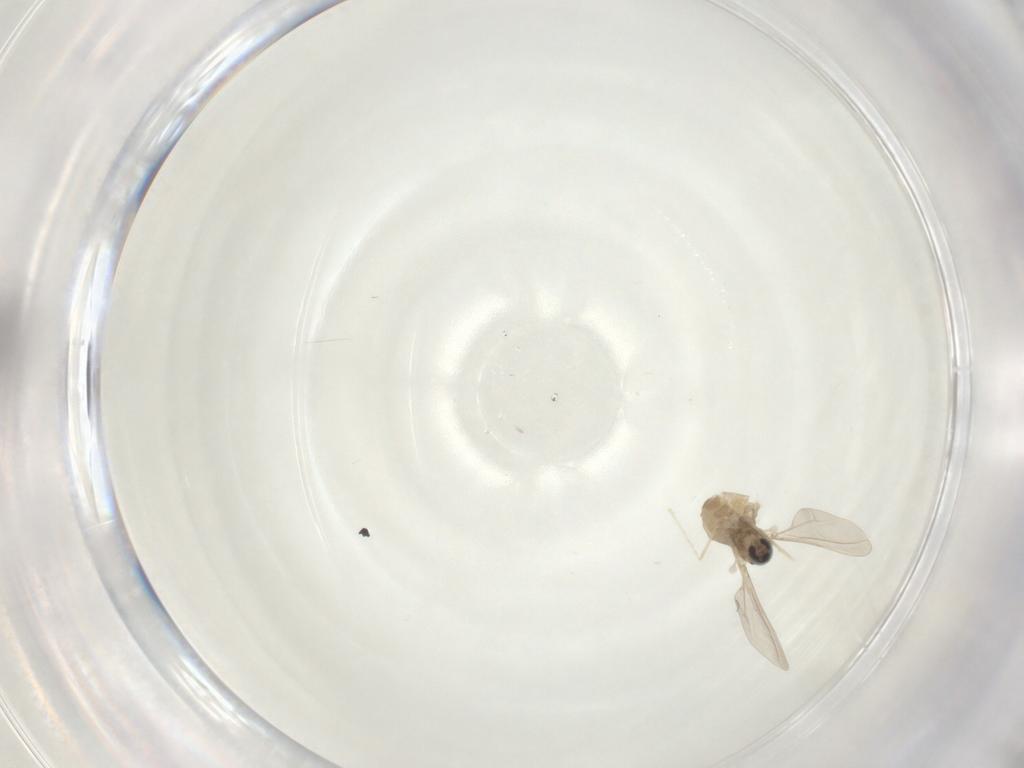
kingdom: Animalia
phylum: Arthropoda
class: Insecta
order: Diptera
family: Cecidomyiidae
